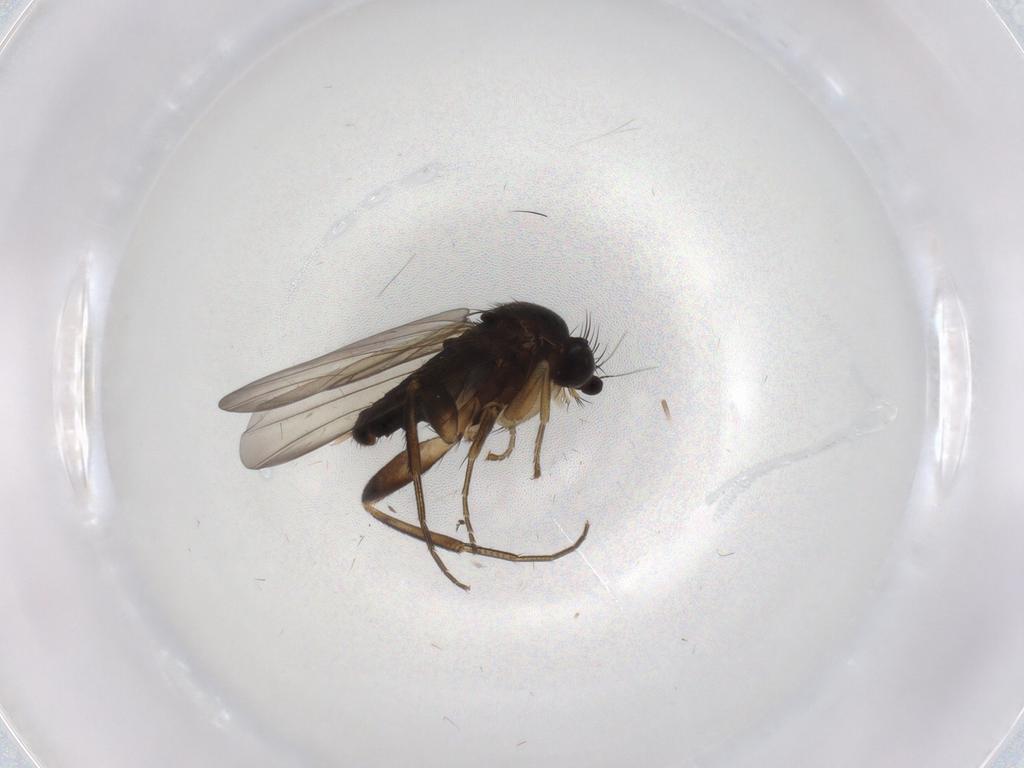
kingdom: Animalia
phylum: Arthropoda
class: Insecta
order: Diptera
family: Phoridae
